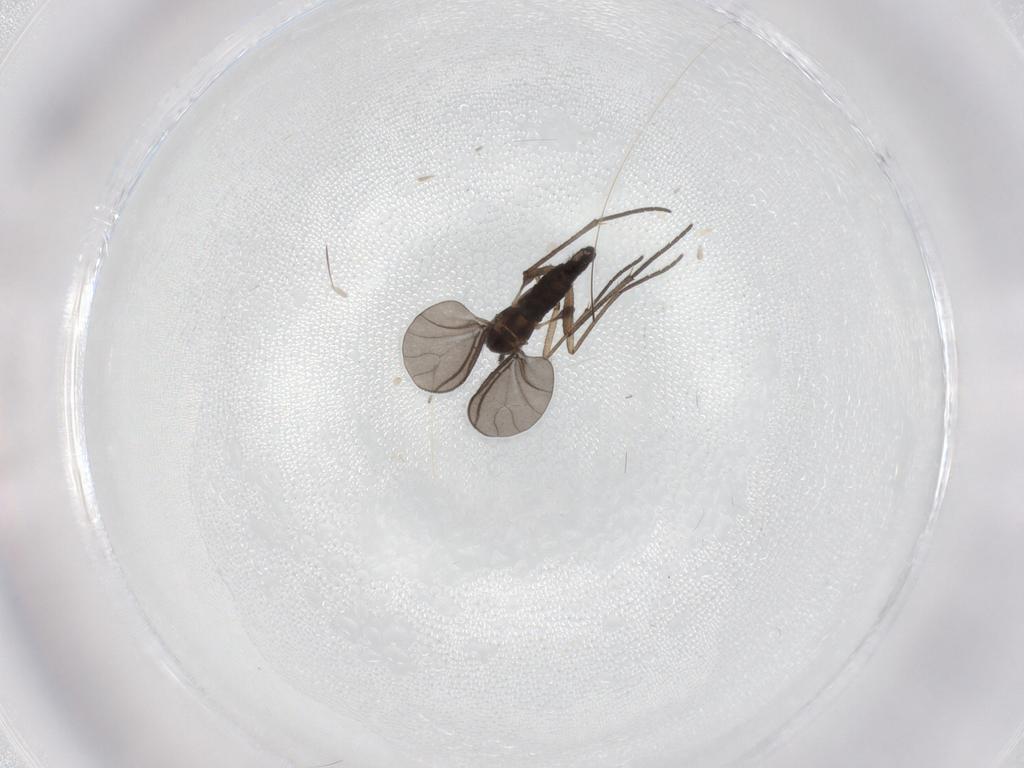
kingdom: Animalia
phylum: Arthropoda
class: Insecta
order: Diptera
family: Sciaridae
